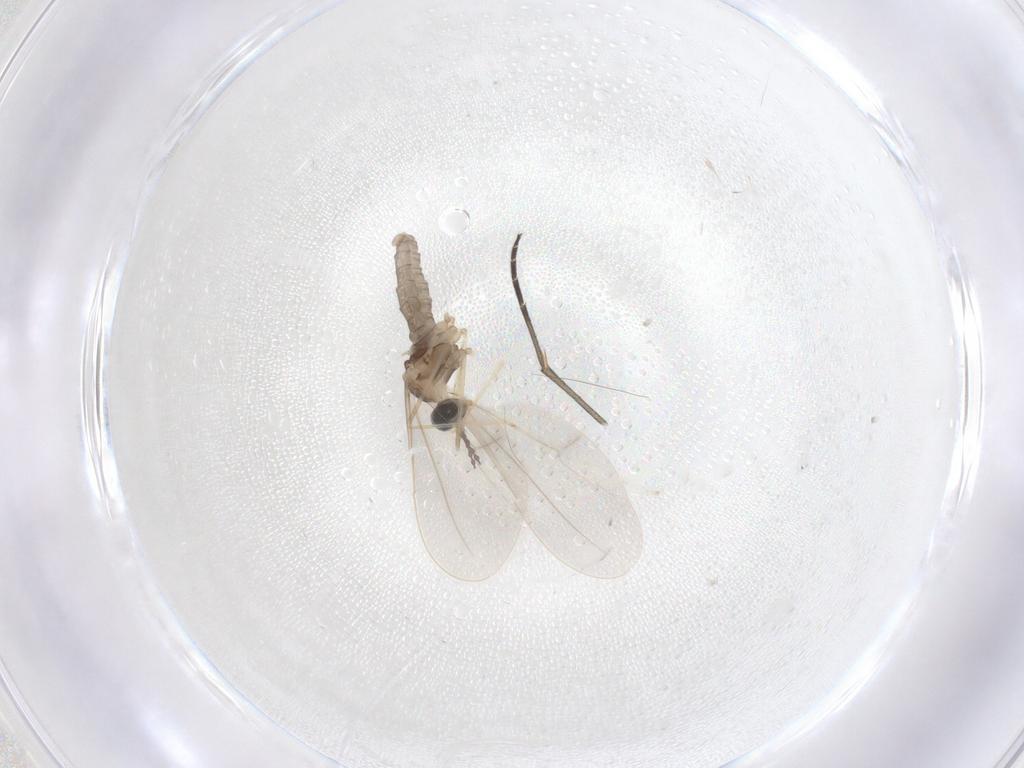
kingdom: Animalia
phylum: Arthropoda
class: Insecta
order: Diptera
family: Cecidomyiidae
